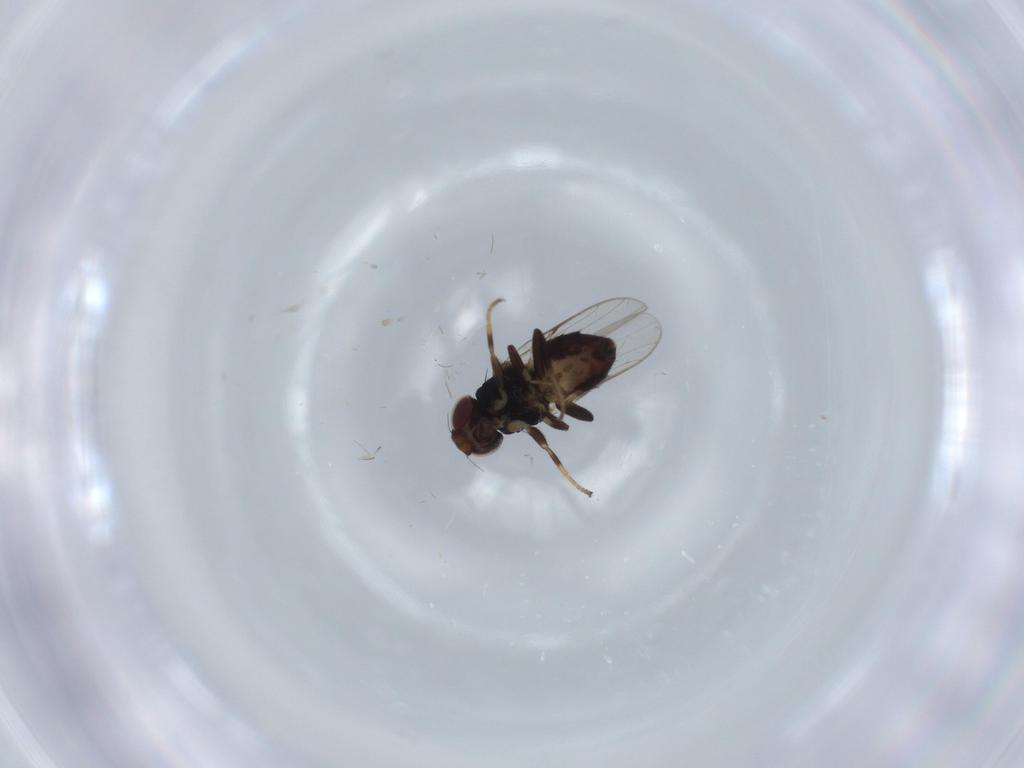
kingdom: Animalia
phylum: Arthropoda
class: Insecta
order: Diptera
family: Chloropidae
